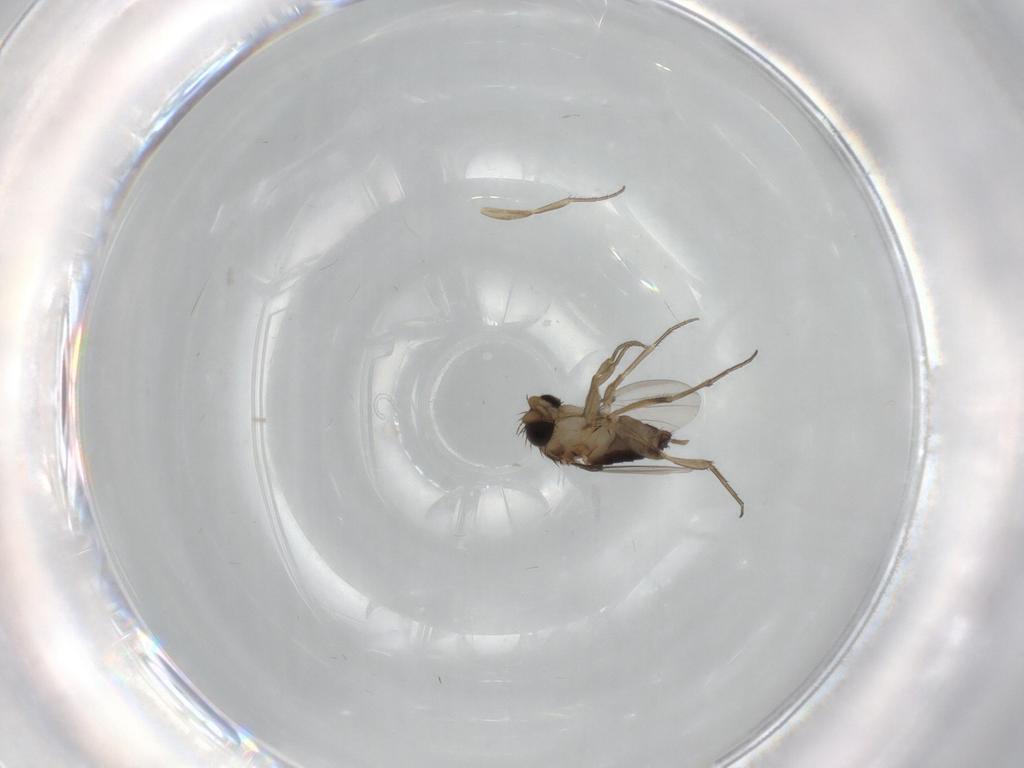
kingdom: Animalia
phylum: Arthropoda
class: Insecta
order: Diptera
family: Phoridae
